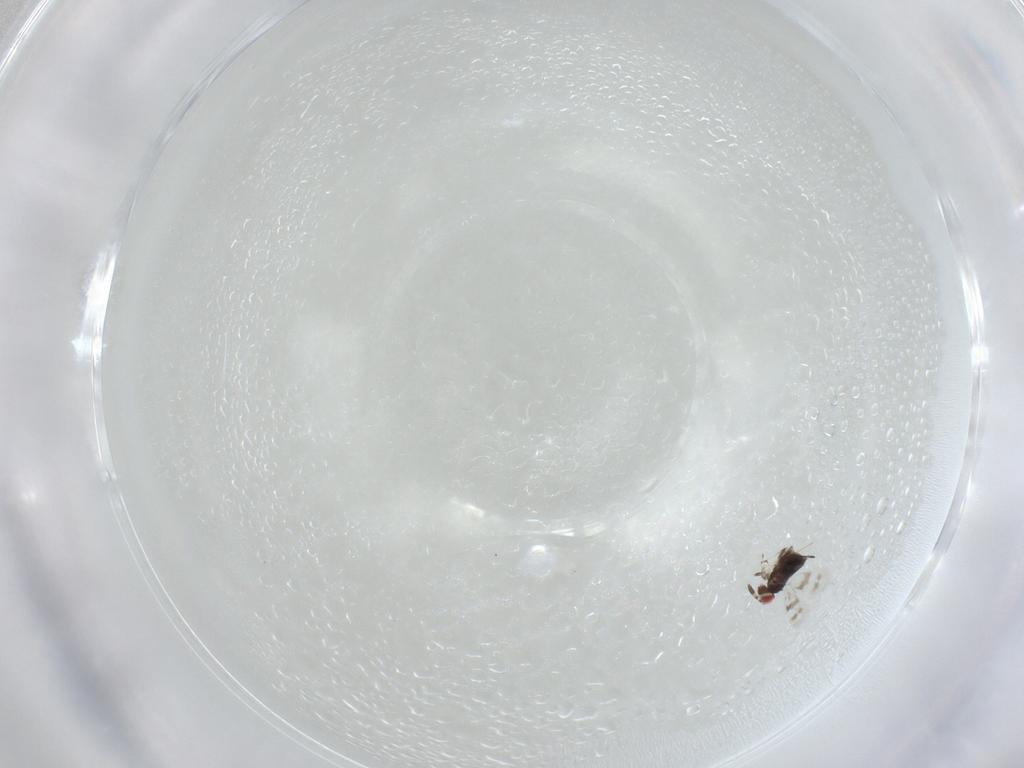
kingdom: Animalia
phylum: Arthropoda
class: Insecta
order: Hymenoptera
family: Azotidae
